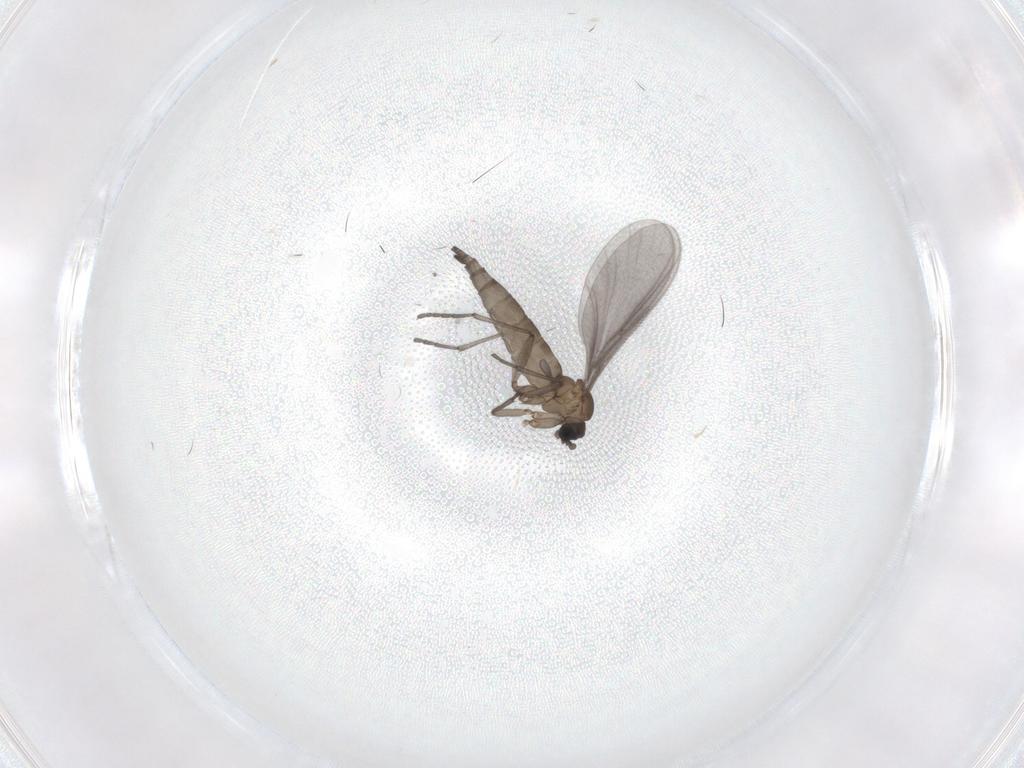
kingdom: Animalia
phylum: Arthropoda
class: Insecta
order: Diptera
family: Sciaridae
